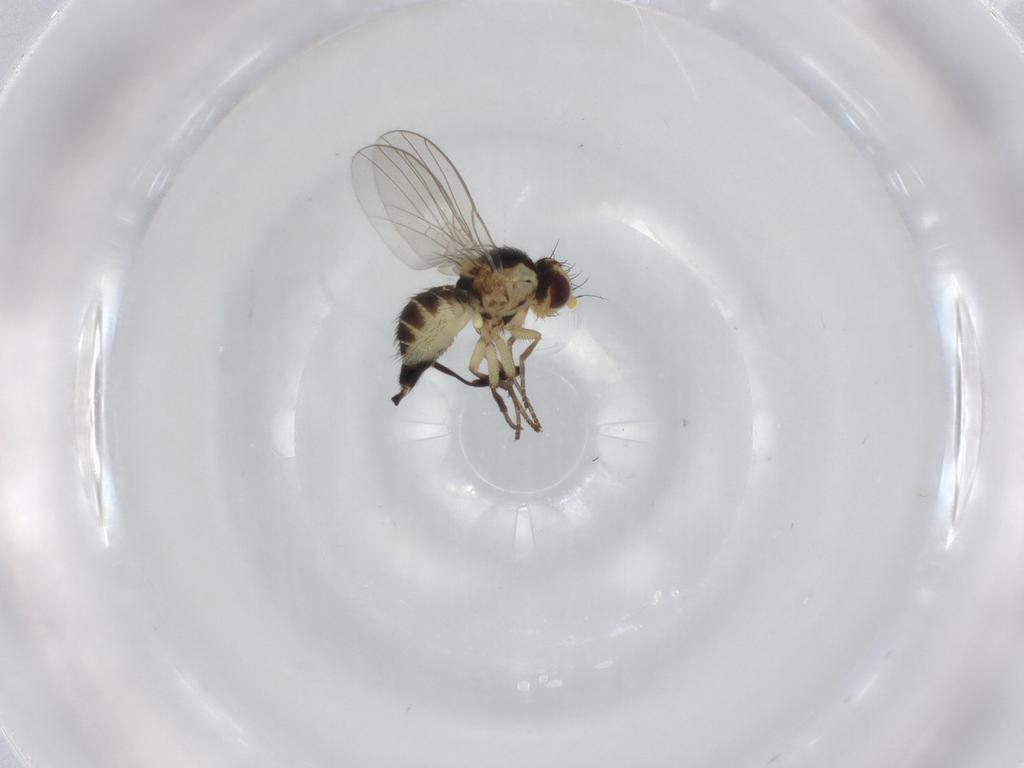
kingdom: Animalia
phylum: Arthropoda
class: Insecta
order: Diptera
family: Agromyzidae
